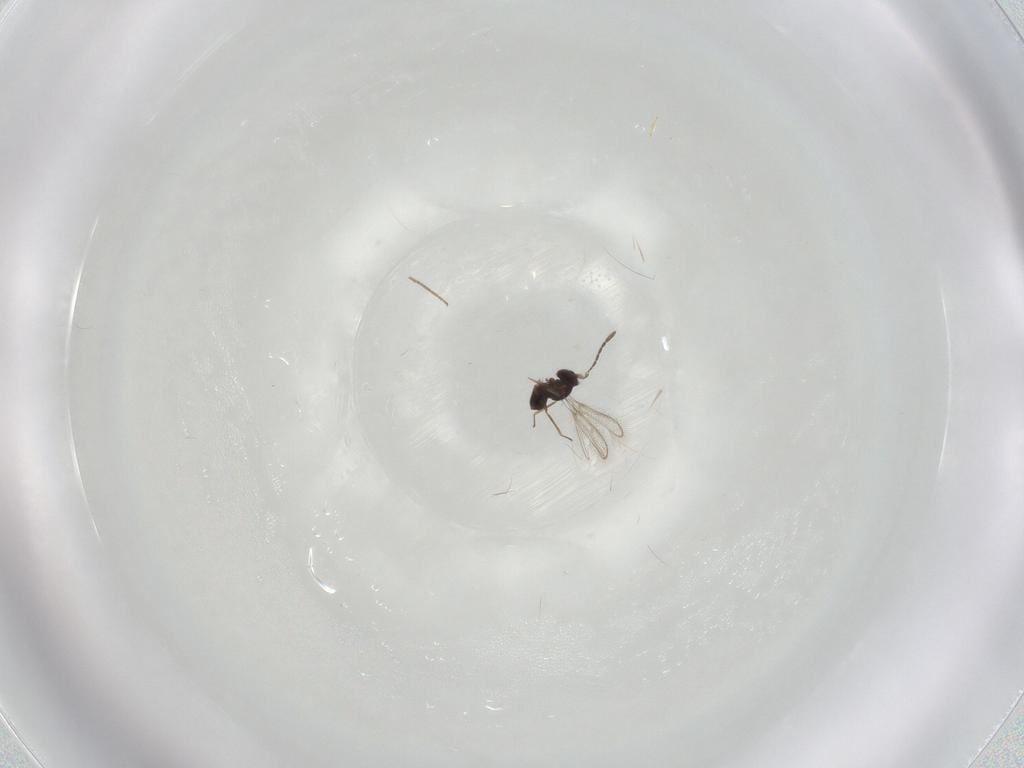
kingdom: Animalia
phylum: Arthropoda
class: Insecta
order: Hymenoptera
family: Mymaridae
